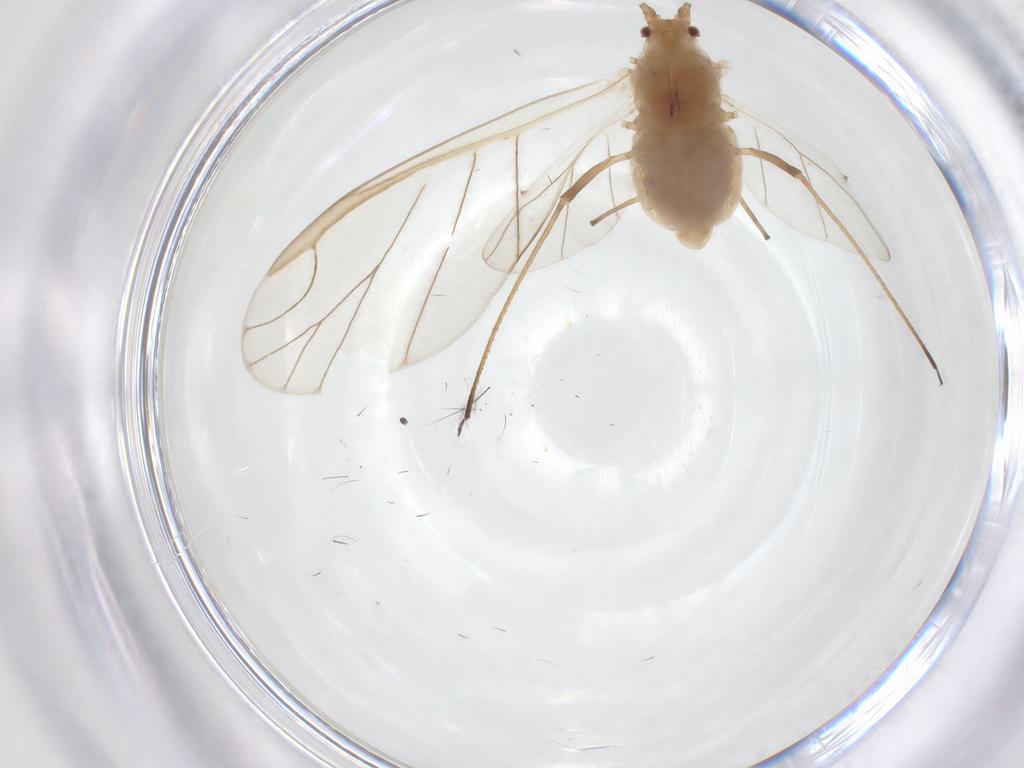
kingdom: Animalia
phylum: Arthropoda
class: Insecta
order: Hemiptera
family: Aphididae
